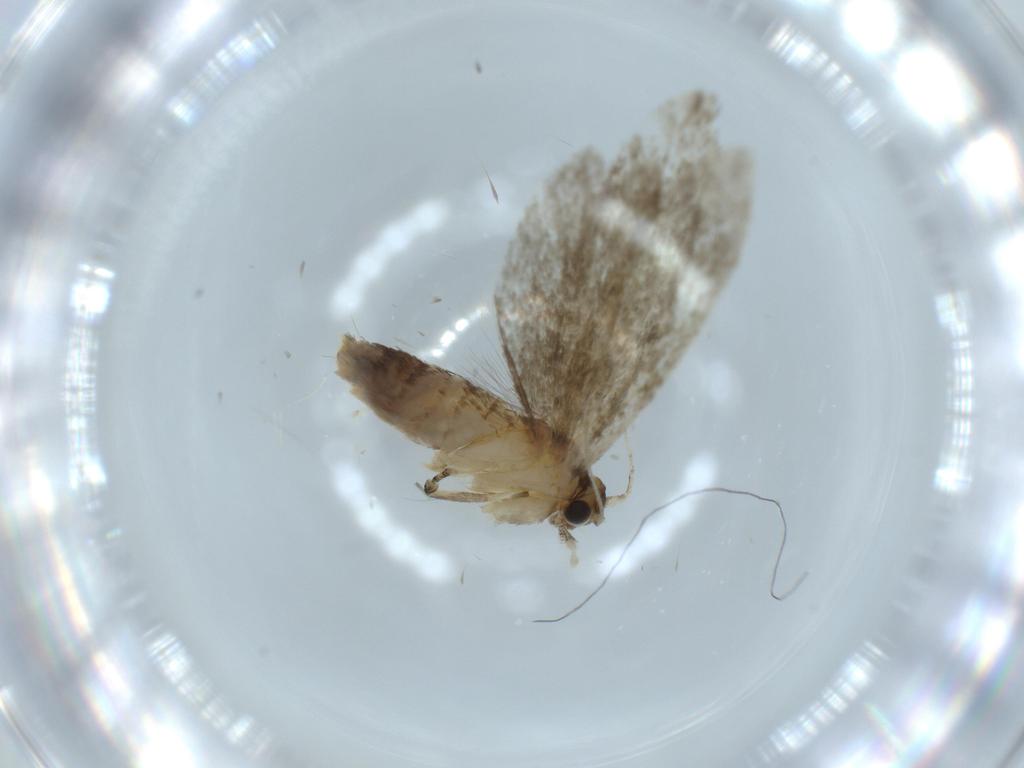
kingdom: Animalia
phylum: Arthropoda
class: Insecta
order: Lepidoptera
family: Tineidae
